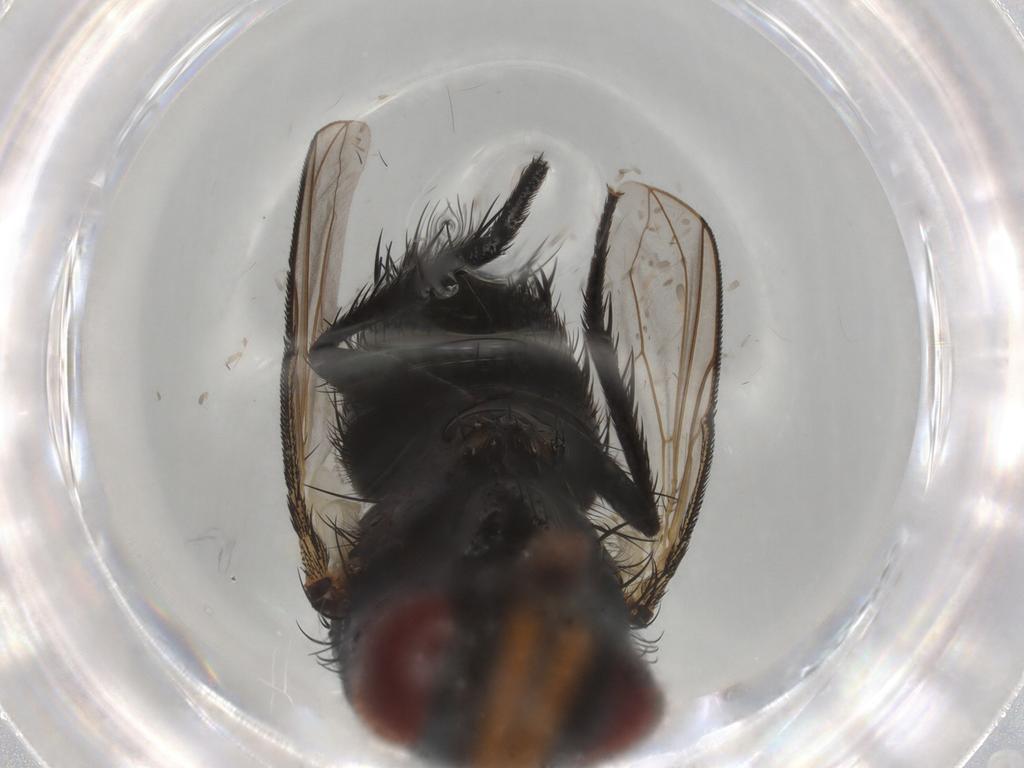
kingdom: Animalia
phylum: Arthropoda
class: Insecta
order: Diptera
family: Tachinidae
